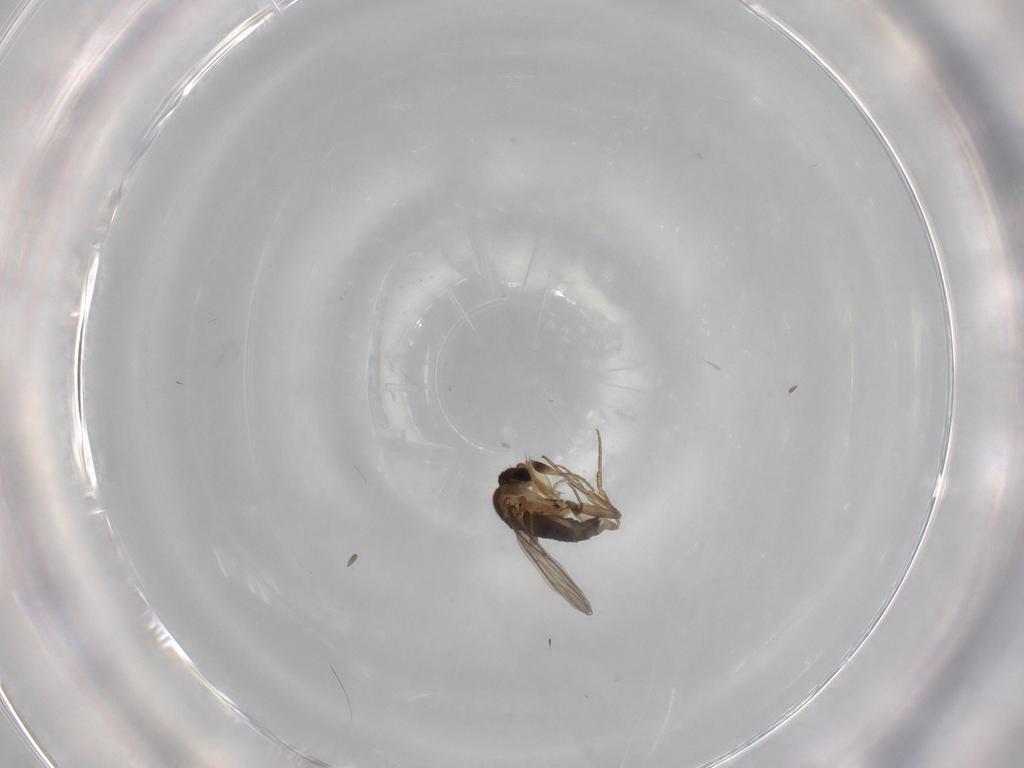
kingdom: Animalia
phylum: Arthropoda
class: Insecta
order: Diptera
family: Phoridae
